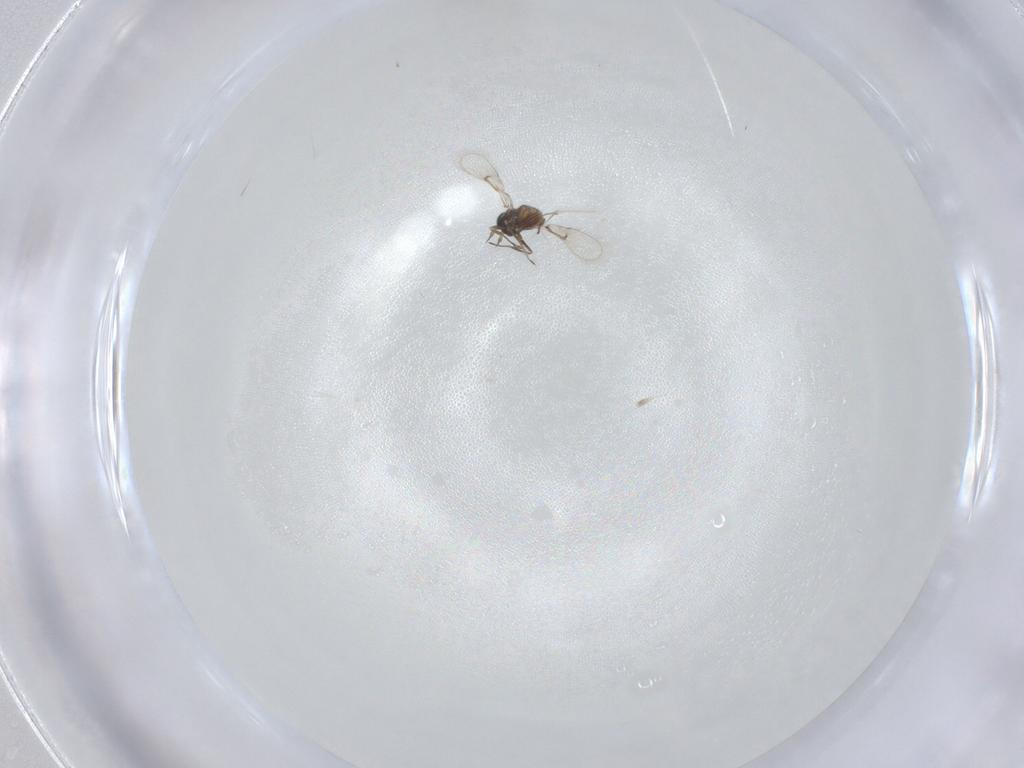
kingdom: Animalia
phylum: Arthropoda
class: Insecta
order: Hymenoptera
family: Trichogrammatidae
